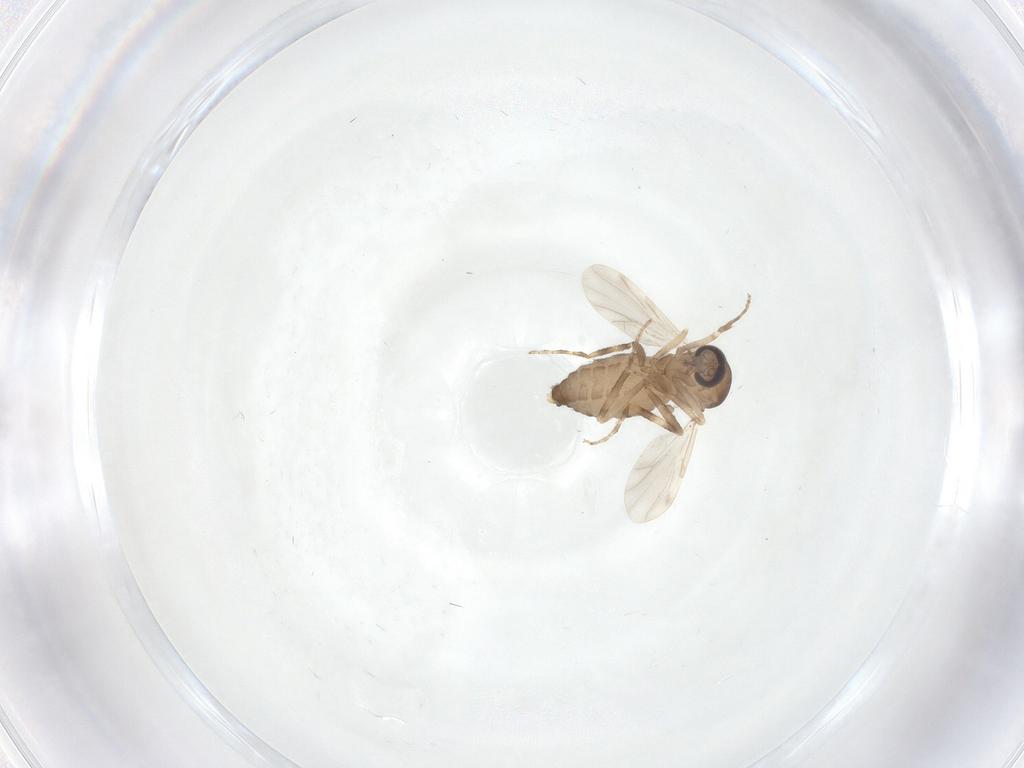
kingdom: Animalia
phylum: Arthropoda
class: Insecta
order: Diptera
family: Ceratopogonidae
